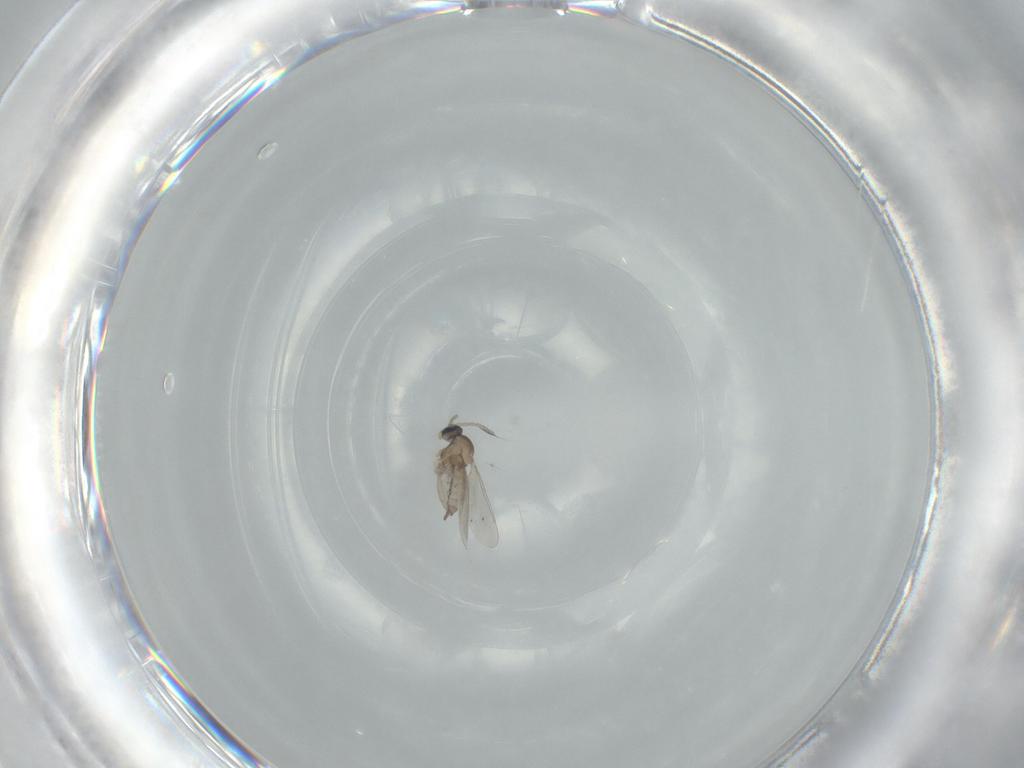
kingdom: Animalia
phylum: Arthropoda
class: Insecta
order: Diptera
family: Cecidomyiidae
